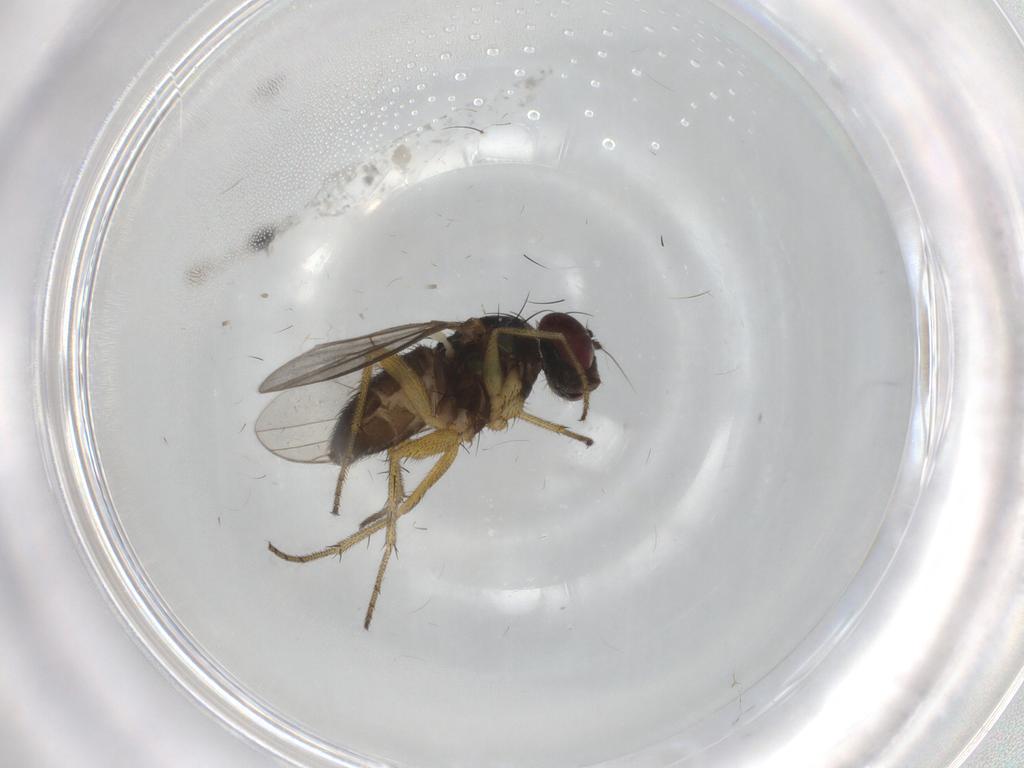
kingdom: Animalia
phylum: Arthropoda
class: Insecta
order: Diptera
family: Dolichopodidae
